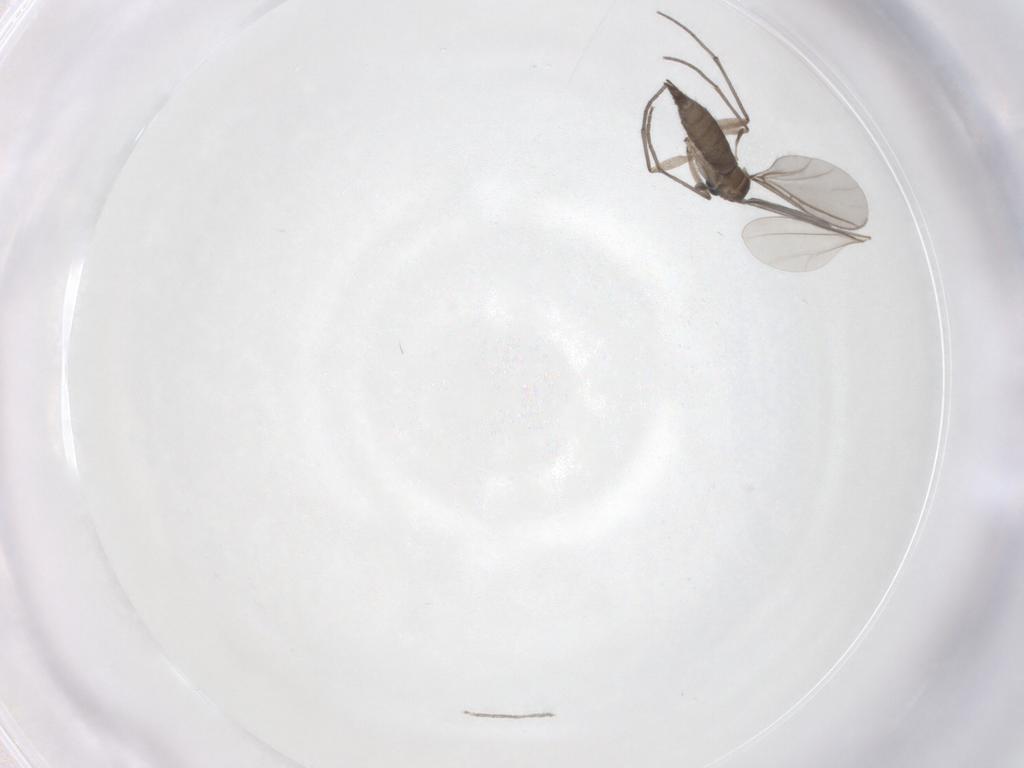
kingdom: Animalia
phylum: Arthropoda
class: Insecta
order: Diptera
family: Sciaridae
